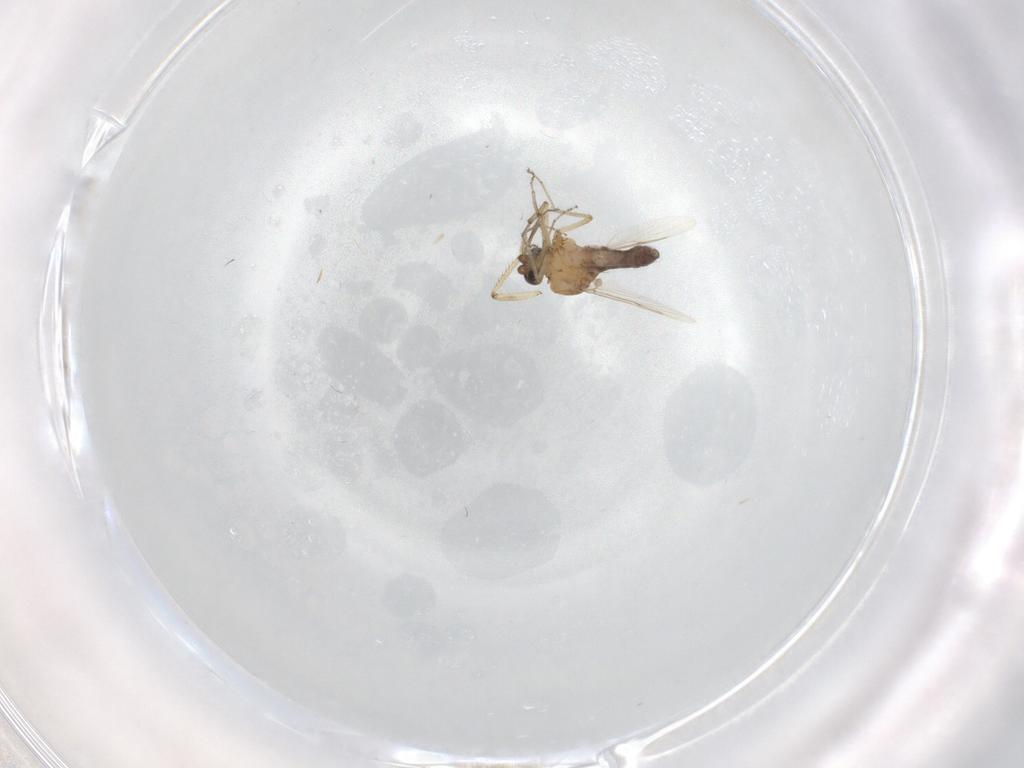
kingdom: Animalia
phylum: Arthropoda
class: Insecta
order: Diptera
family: Ceratopogonidae
